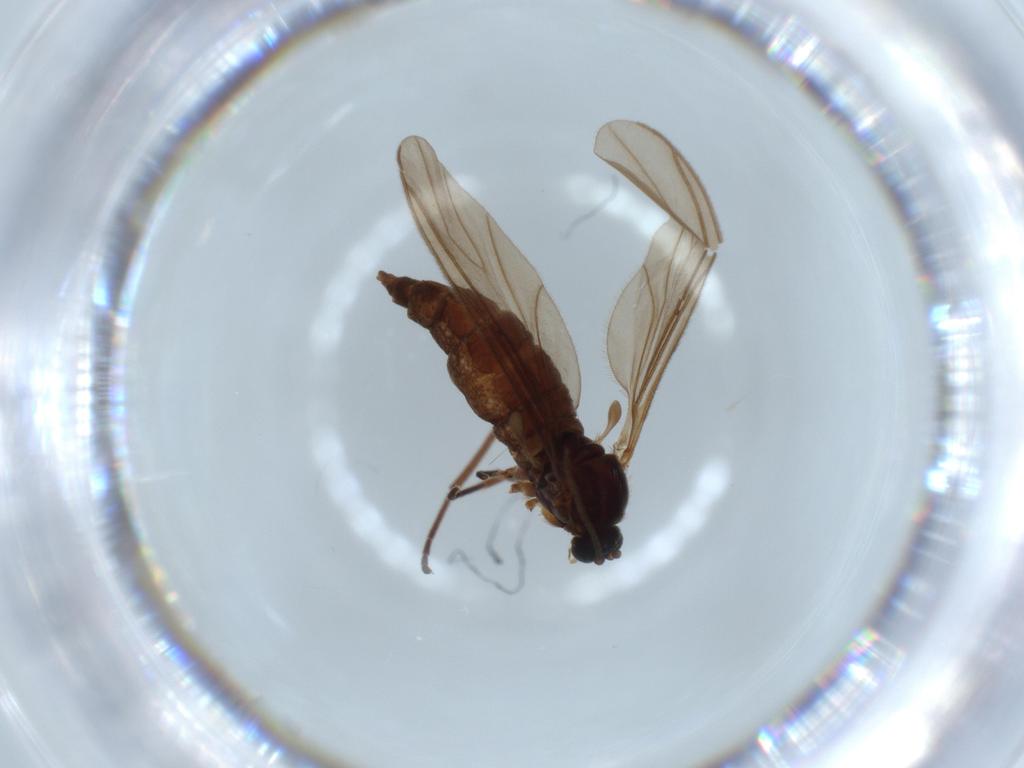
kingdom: Animalia
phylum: Arthropoda
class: Insecta
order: Diptera
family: Sciaridae
